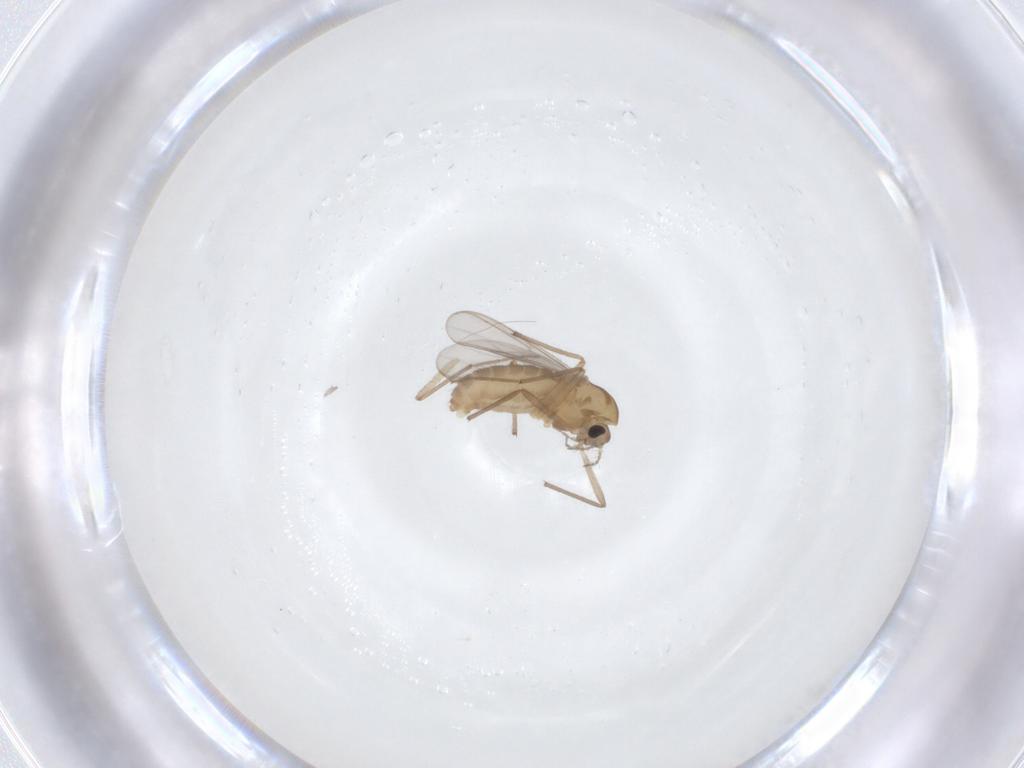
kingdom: Animalia
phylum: Arthropoda
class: Insecta
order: Diptera
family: Chironomidae
